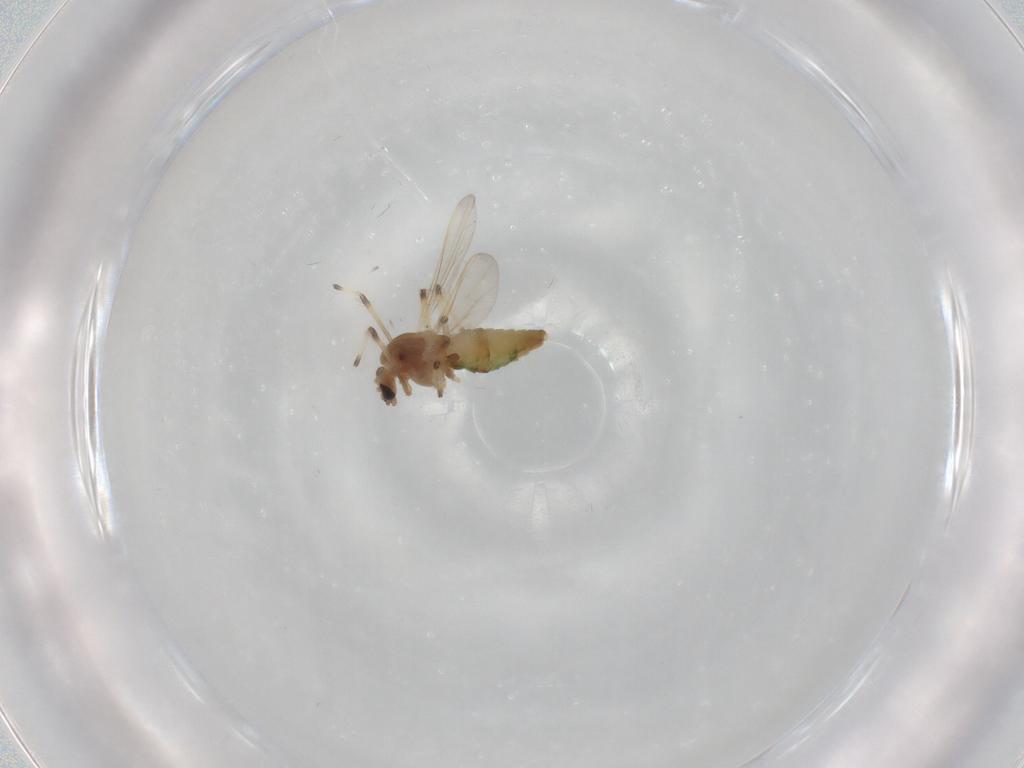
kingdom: Animalia
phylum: Arthropoda
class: Insecta
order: Diptera
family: Chironomidae
